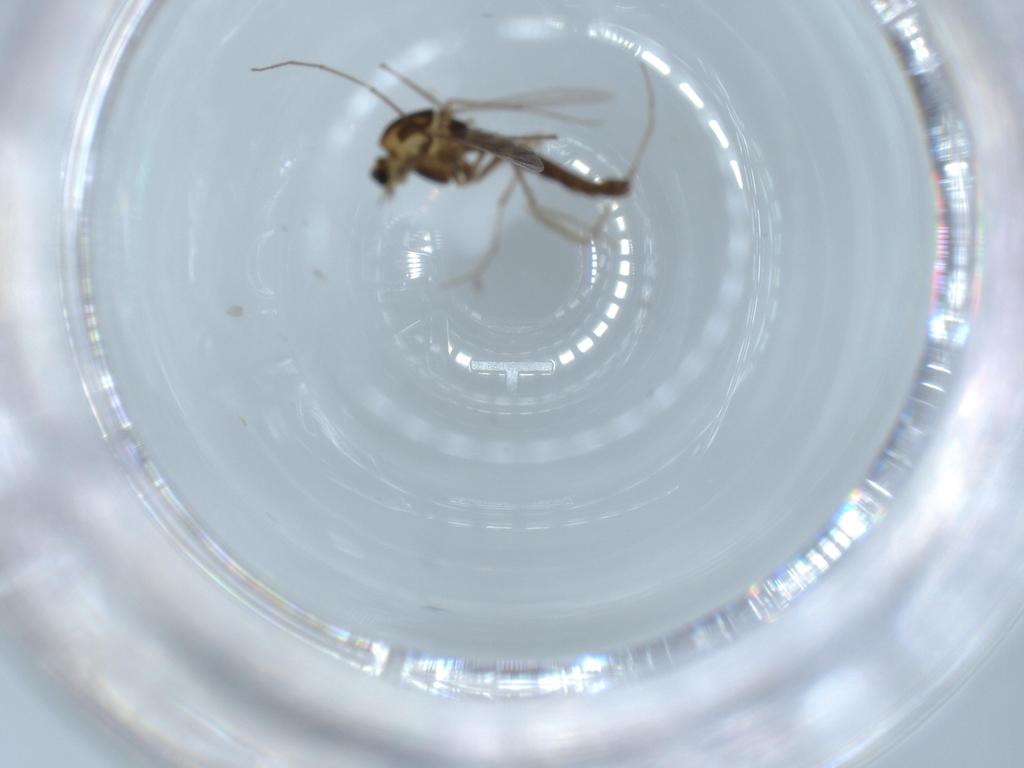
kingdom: Animalia
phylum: Arthropoda
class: Insecta
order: Diptera
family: Chironomidae
